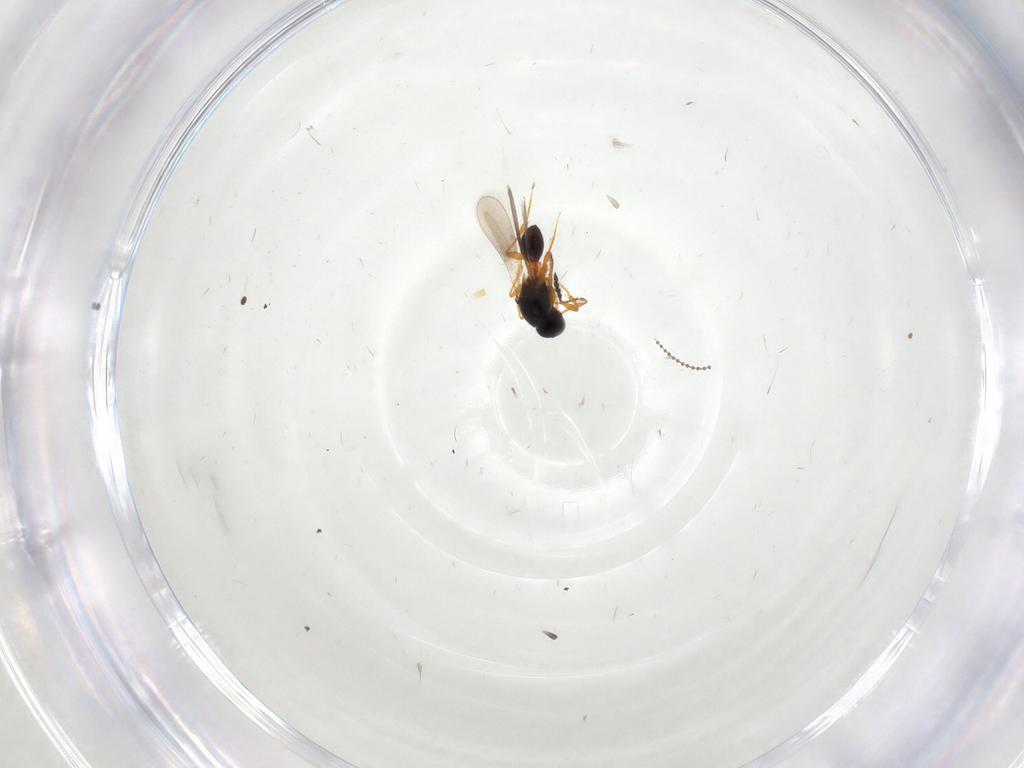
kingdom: Animalia
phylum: Arthropoda
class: Insecta
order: Hymenoptera
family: Platygastridae
